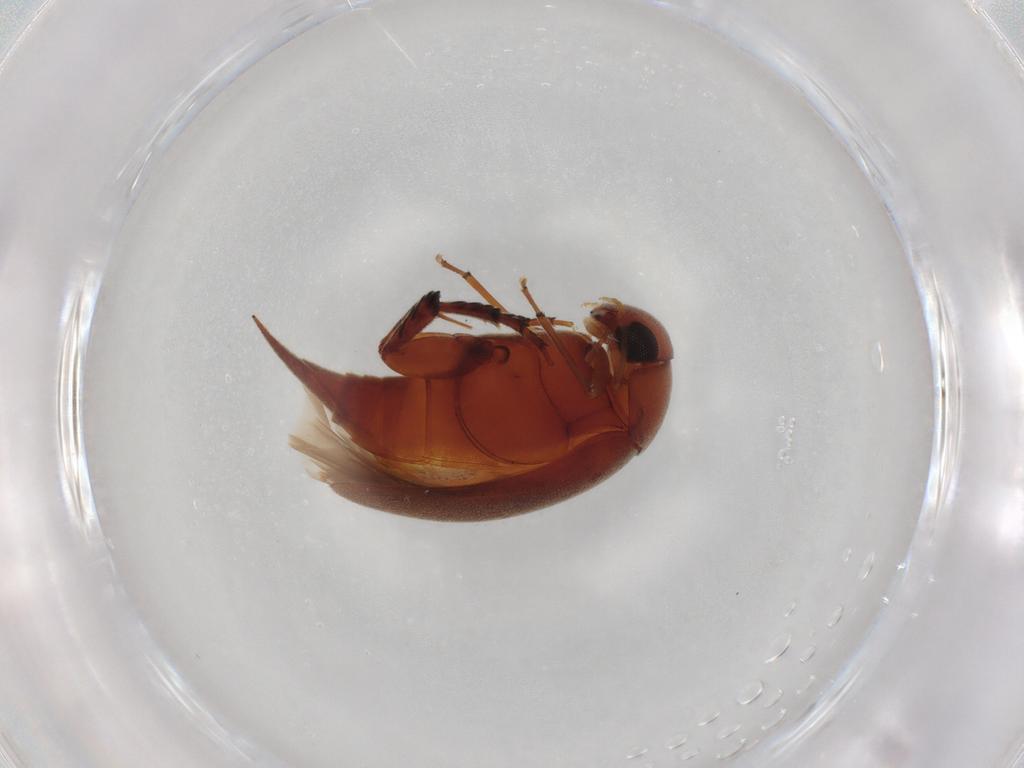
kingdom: Animalia
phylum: Arthropoda
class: Insecta
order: Coleoptera
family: Mordellidae
